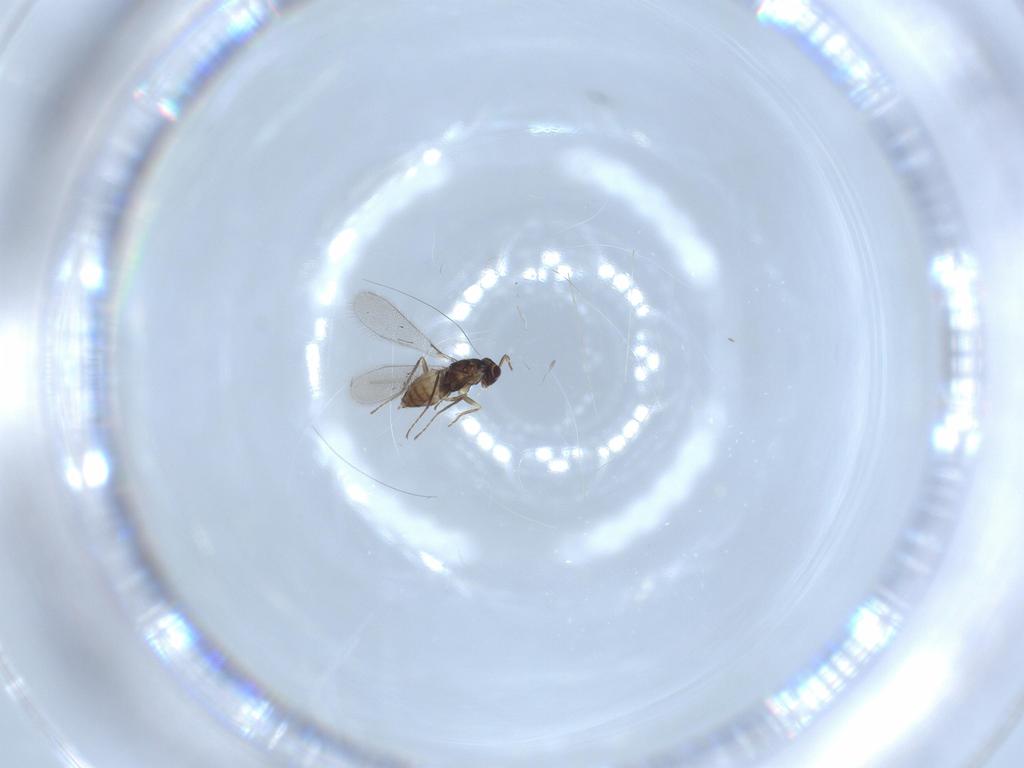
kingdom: Animalia
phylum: Arthropoda
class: Insecta
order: Hymenoptera
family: Mymaridae
